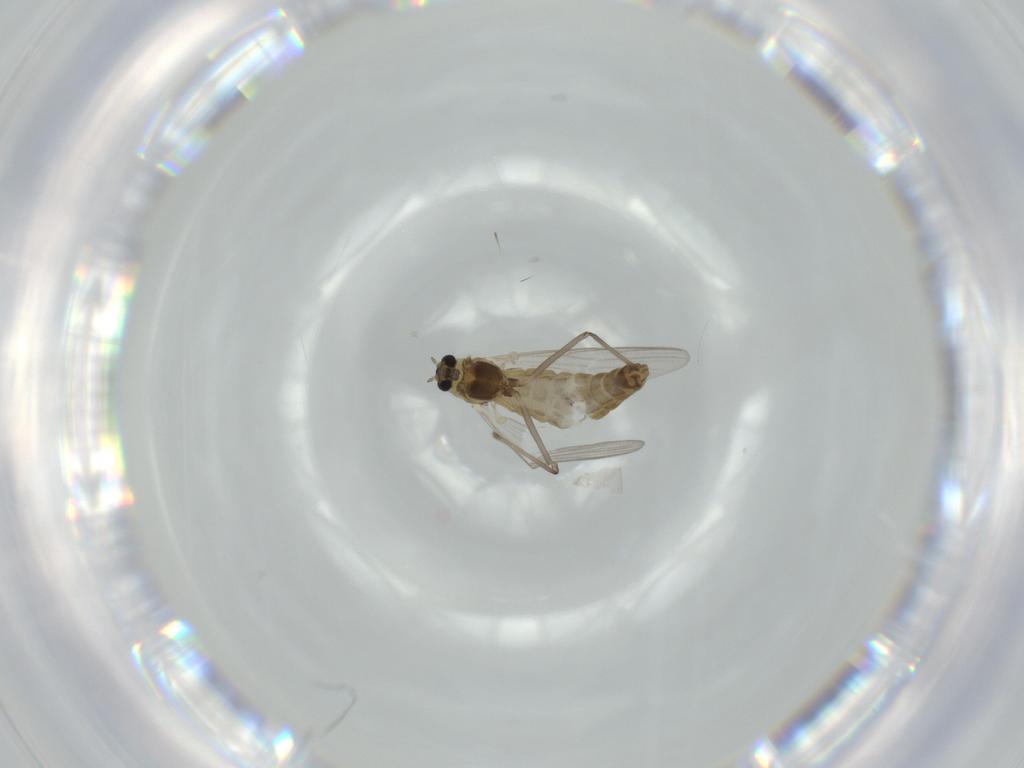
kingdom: Animalia
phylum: Arthropoda
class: Insecta
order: Diptera
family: Chironomidae
